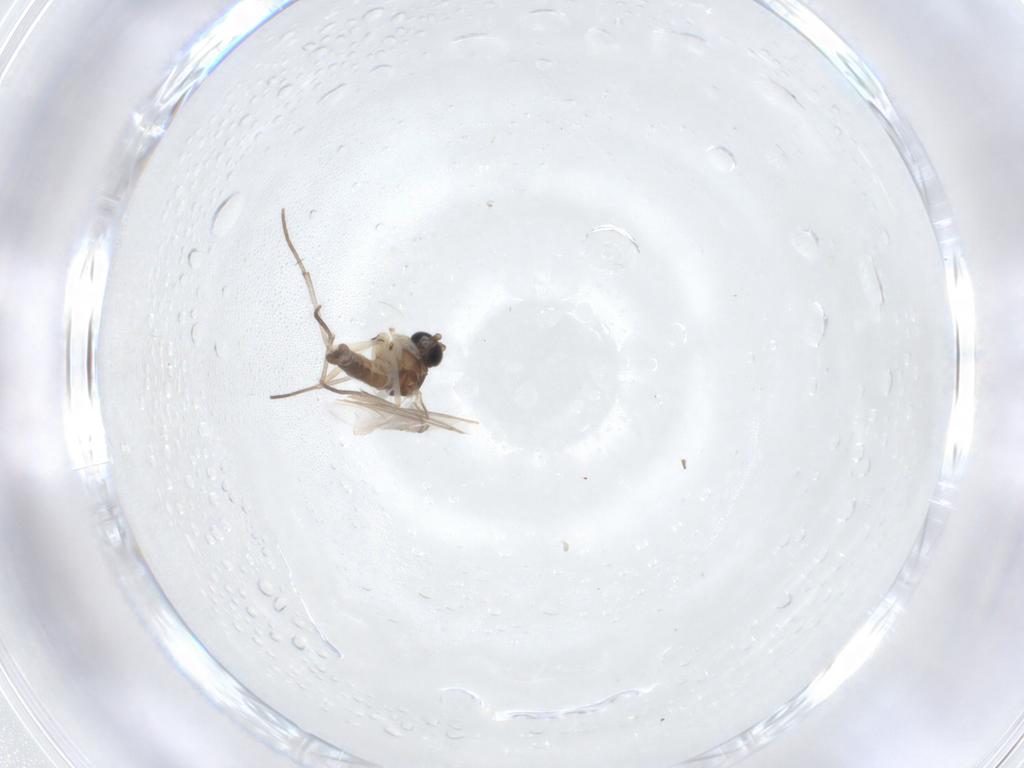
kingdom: Animalia
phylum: Arthropoda
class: Insecta
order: Diptera
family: Sciaridae
